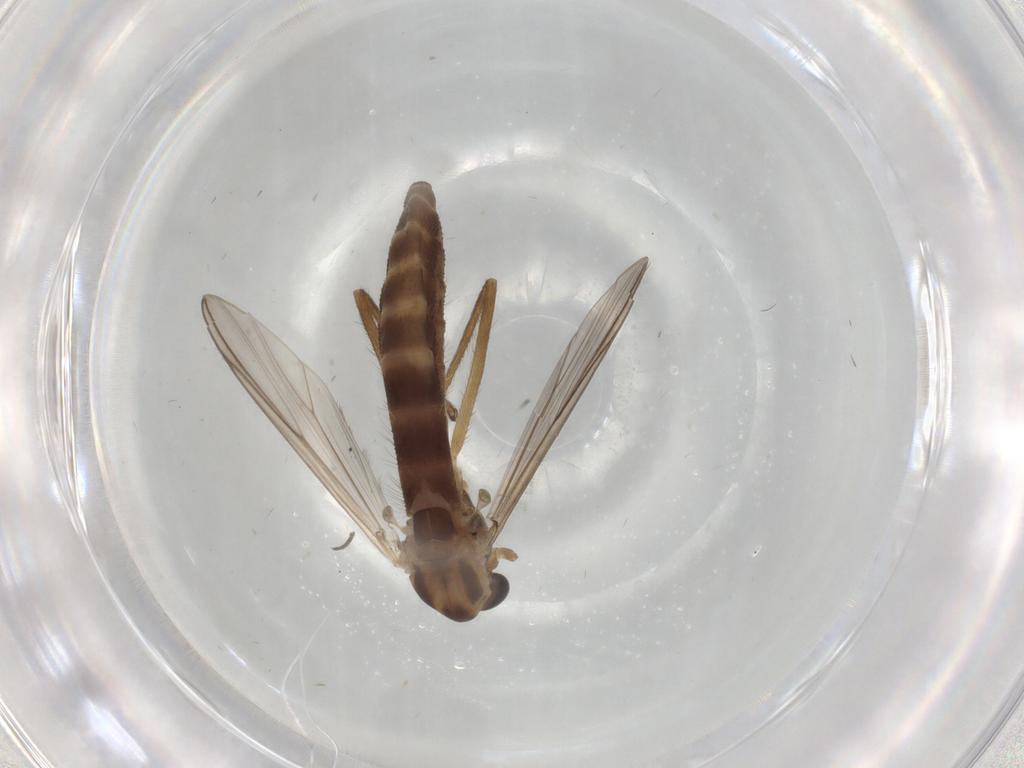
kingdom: Animalia
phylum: Arthropoda
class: Insecta
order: Diptera
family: Chironomidae
